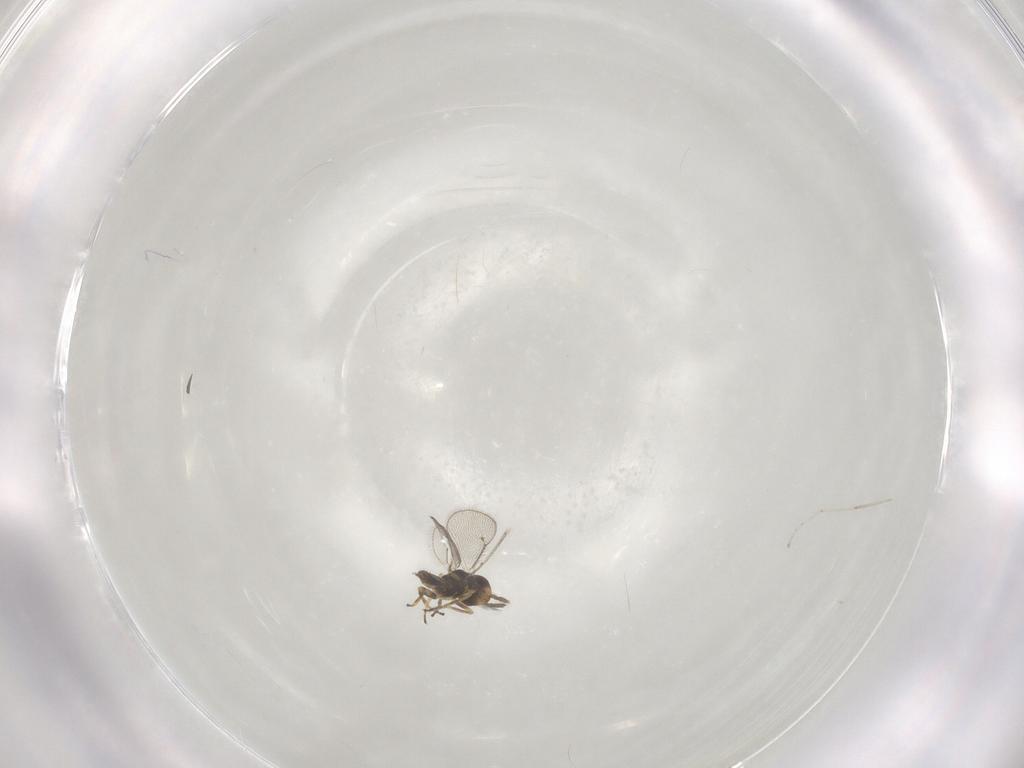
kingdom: Animalia
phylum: Arthropoda
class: Insecta
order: Hymenoptera
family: Eulophidae
